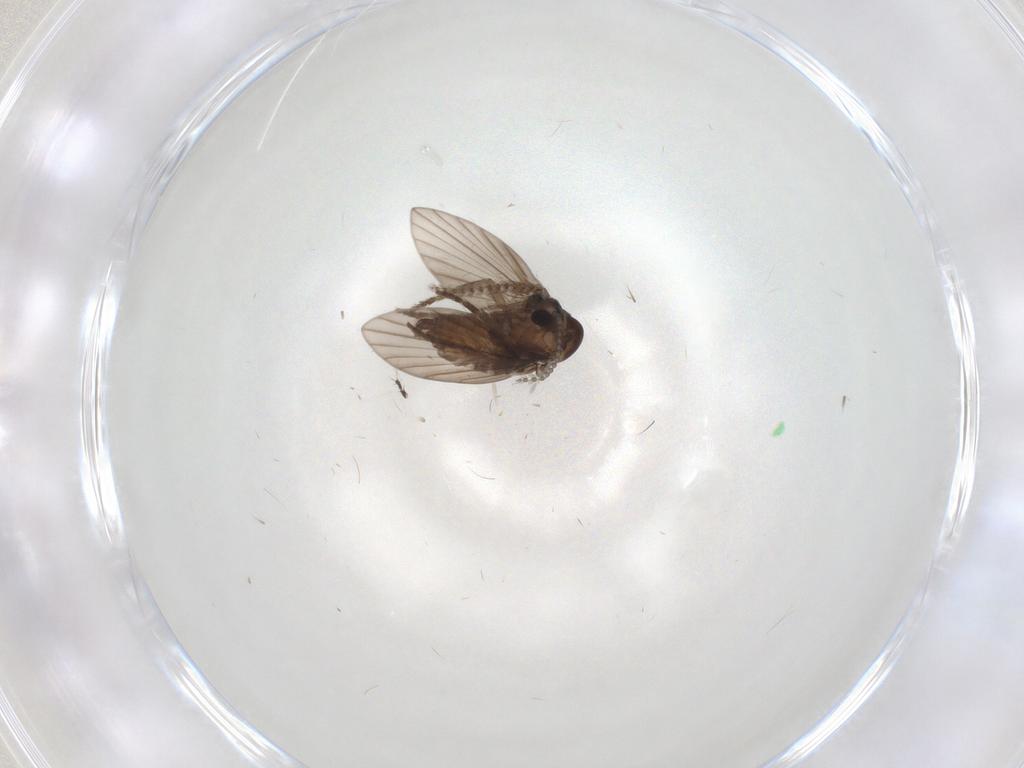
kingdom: Animalia
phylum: Arthropoda
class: Insecta
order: Diptera
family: Psychodidae
